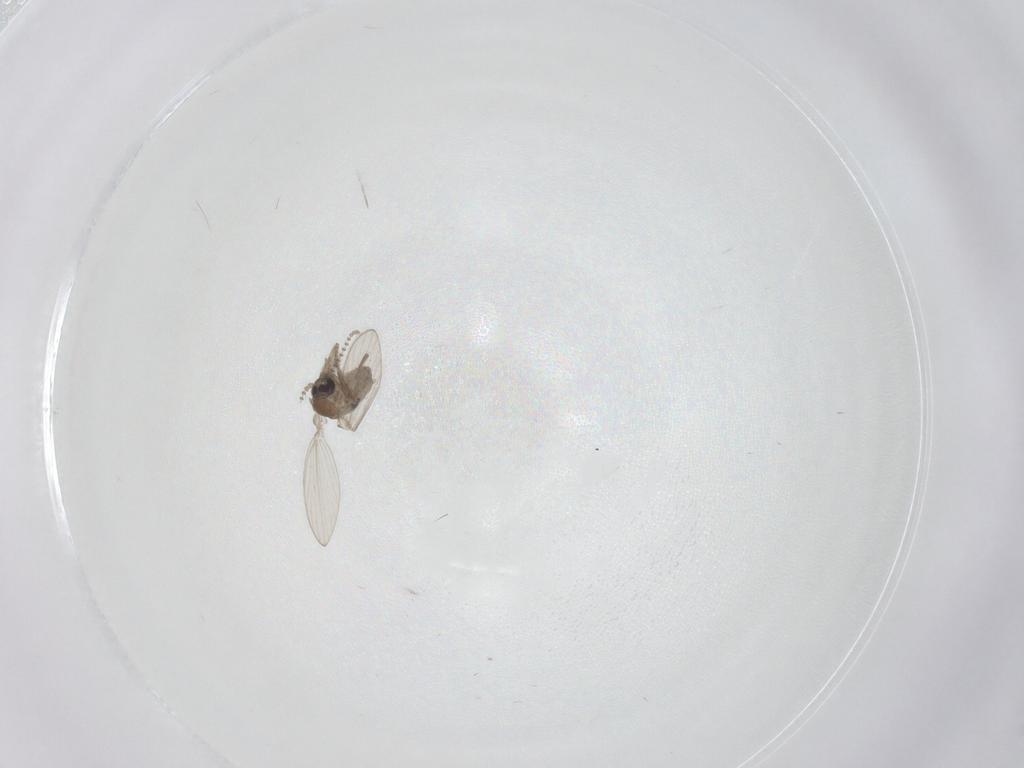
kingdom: Animalia
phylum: Arthropoda
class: Insecta
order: Diptera
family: Psychodidae
